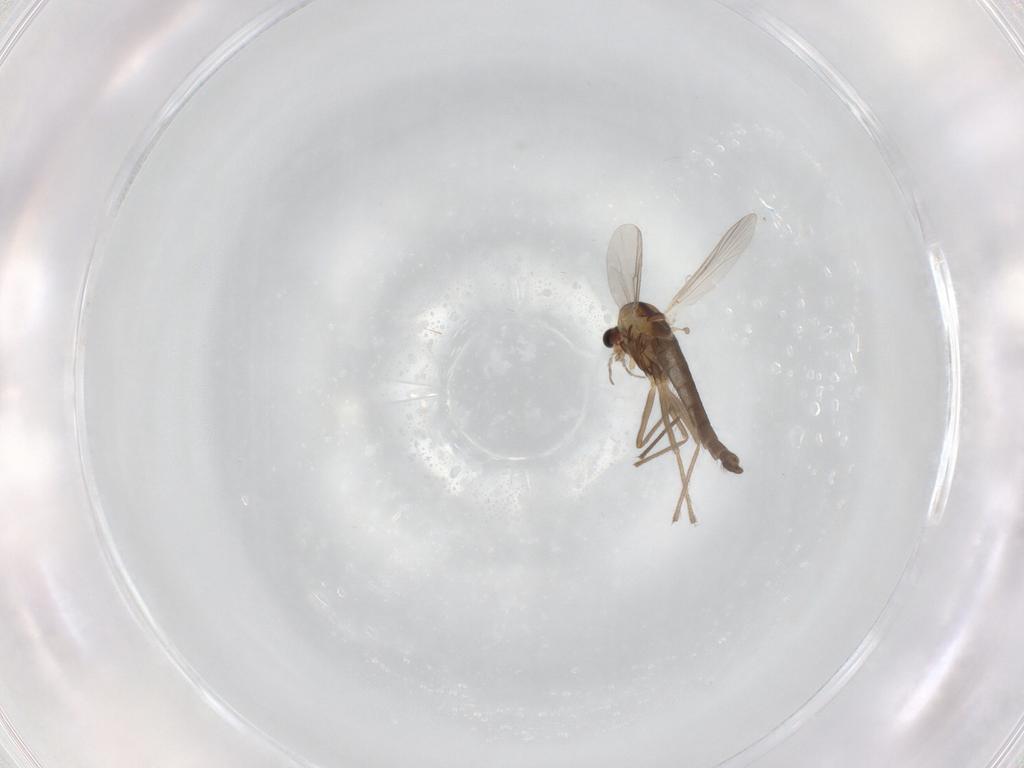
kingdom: Animalia
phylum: Arthropoda
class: Insecta
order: Diptera
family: Chironomidae
